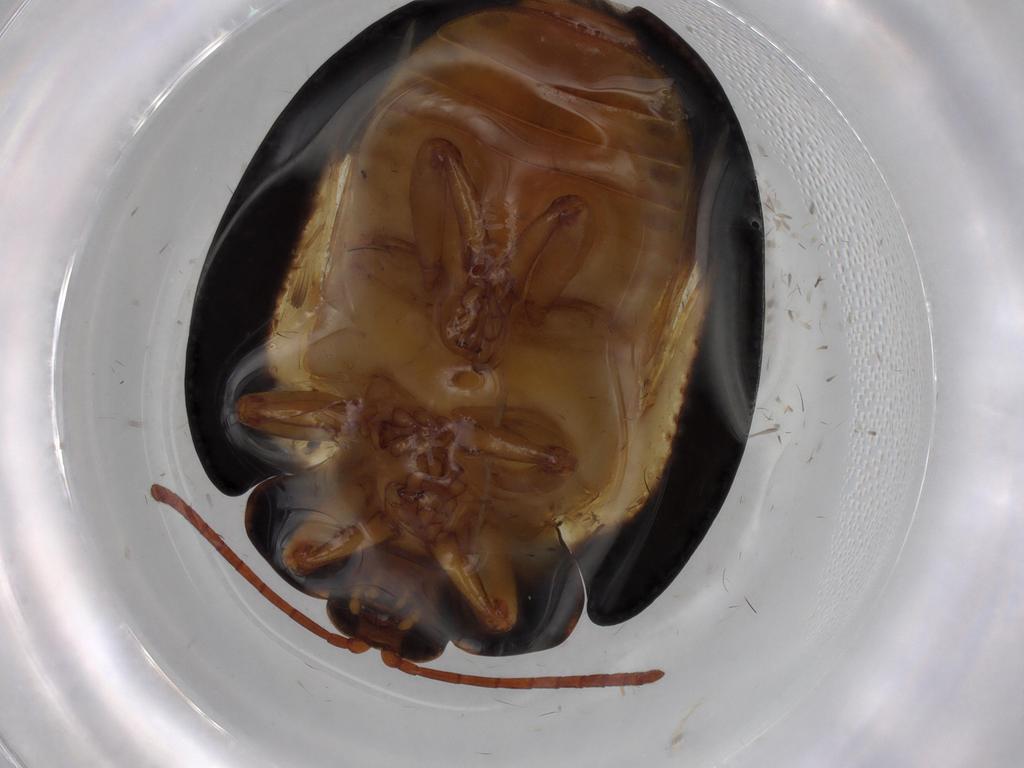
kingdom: Animalia
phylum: Arthropoda
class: Insecta
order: Coleoptera
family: Chrysomelidae
